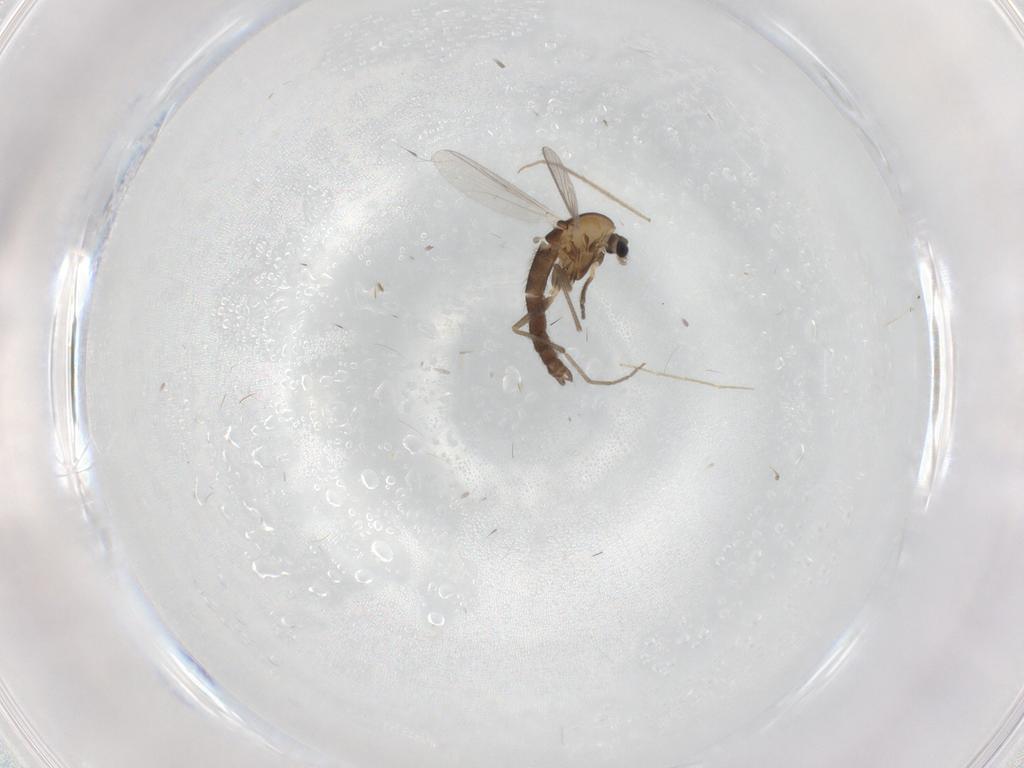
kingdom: Animalia
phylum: Arthropoda
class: Insecta
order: Diptera
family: Chironomidae
